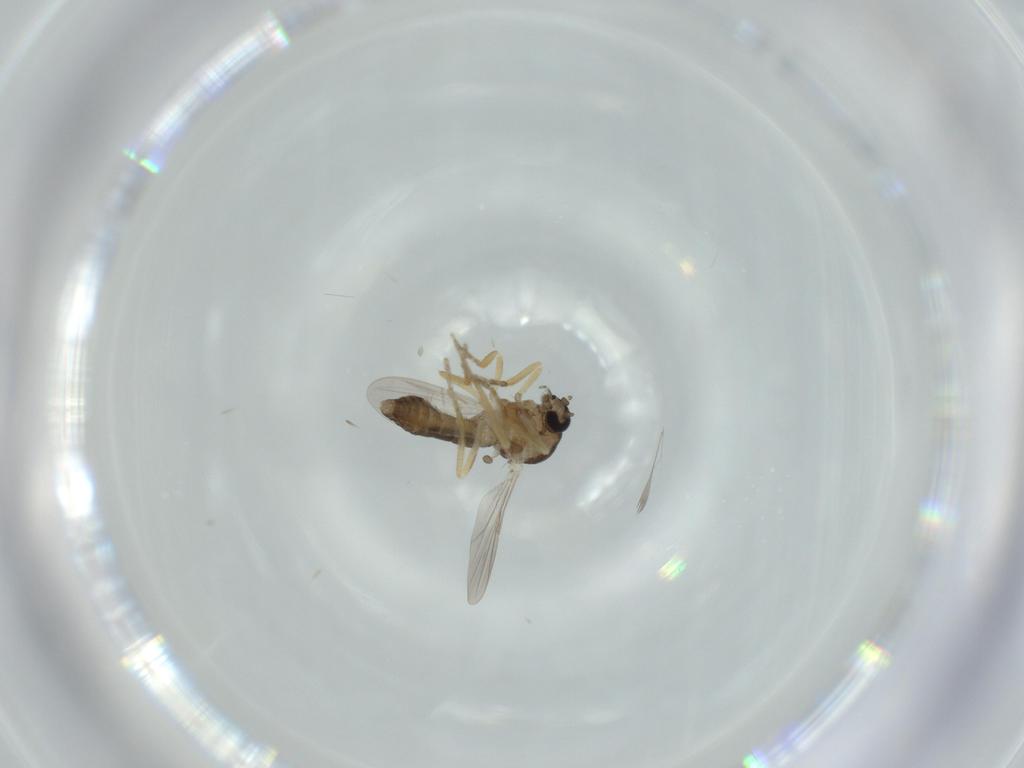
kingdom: Animalia
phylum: Arthropoda
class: Insecta
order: Diptera
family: Ceratopogonidae
